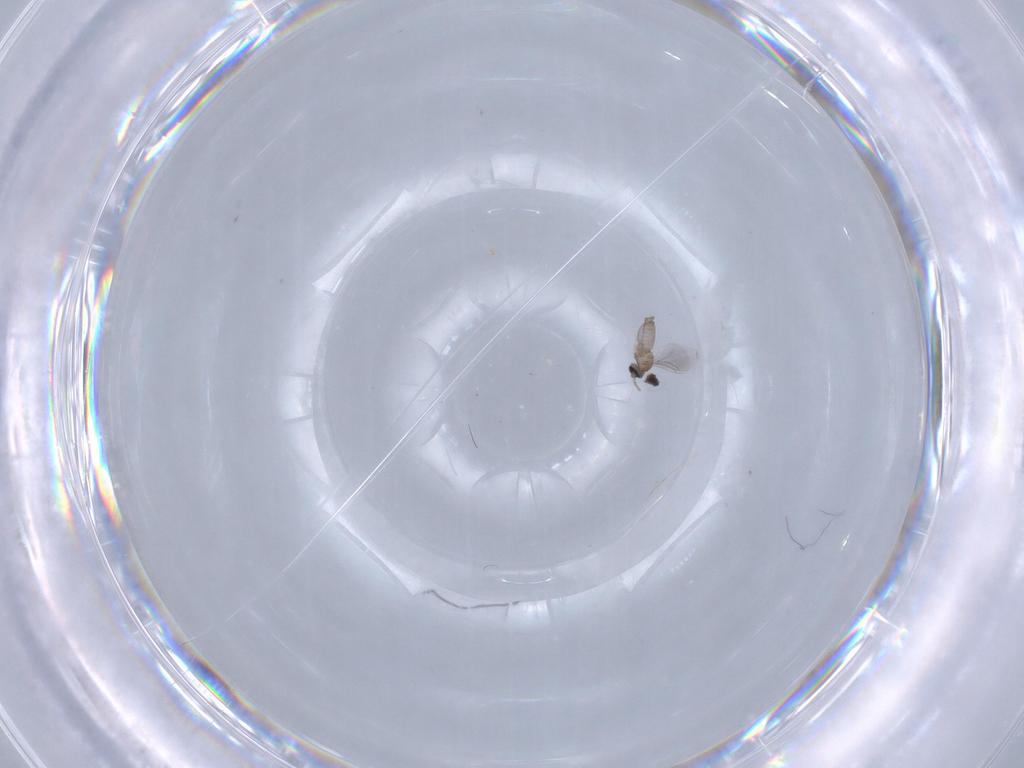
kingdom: Animalia
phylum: Arthropoda
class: Insecta
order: Diptera
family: Cecidomyiidae
